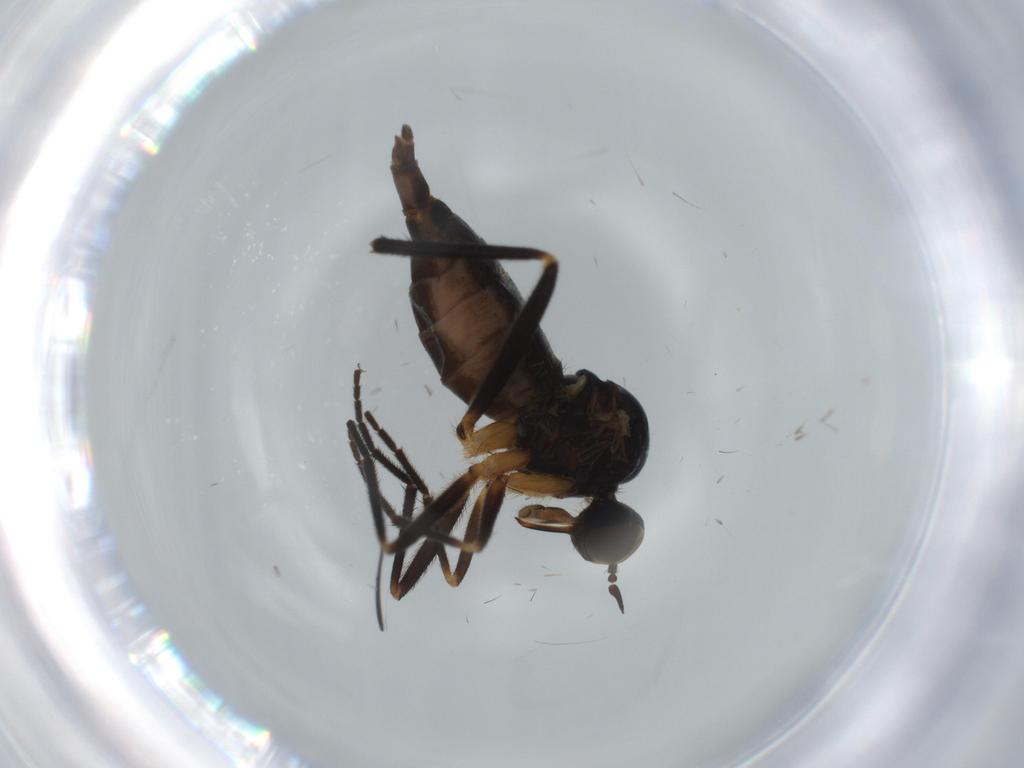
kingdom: Animalia
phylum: Arthropoda
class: Insecta
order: Diptera
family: Empididae
